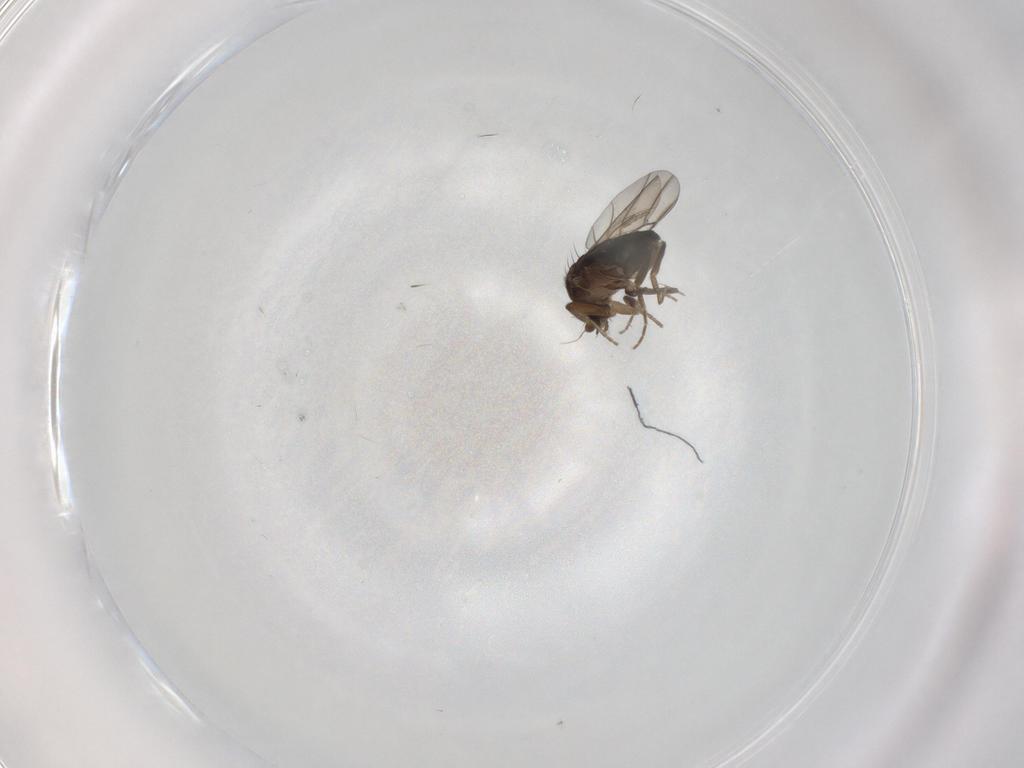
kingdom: Animalia
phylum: Arthropoda
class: Insecta
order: Diptera
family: Phoridae
